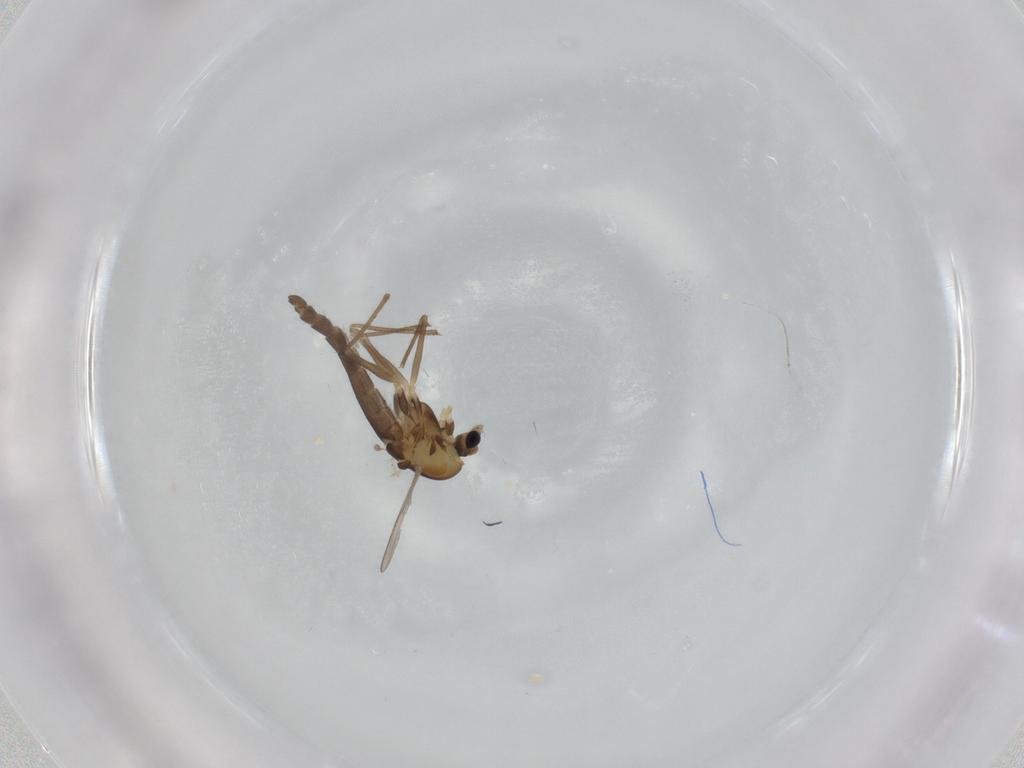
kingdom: Animalia
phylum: Arthropoda
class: Insecta
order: Diptera
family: Chironomidae
